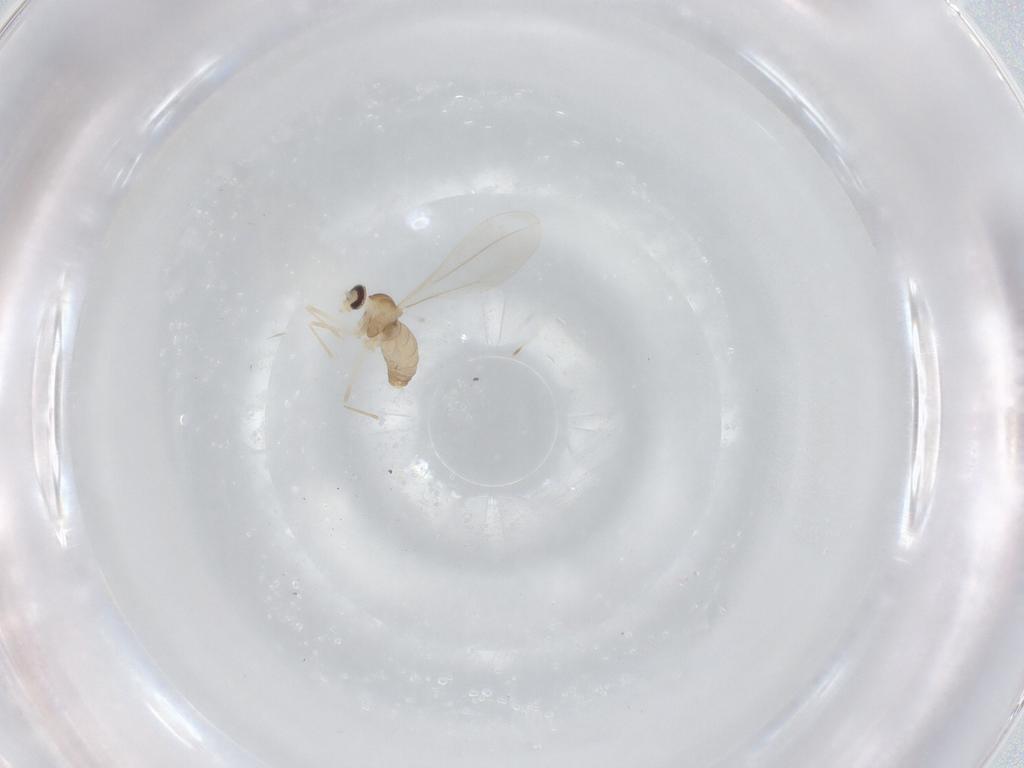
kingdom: Animalia
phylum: Arthropoda
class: Insecta
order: Diptera
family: Cecidomyiidae
